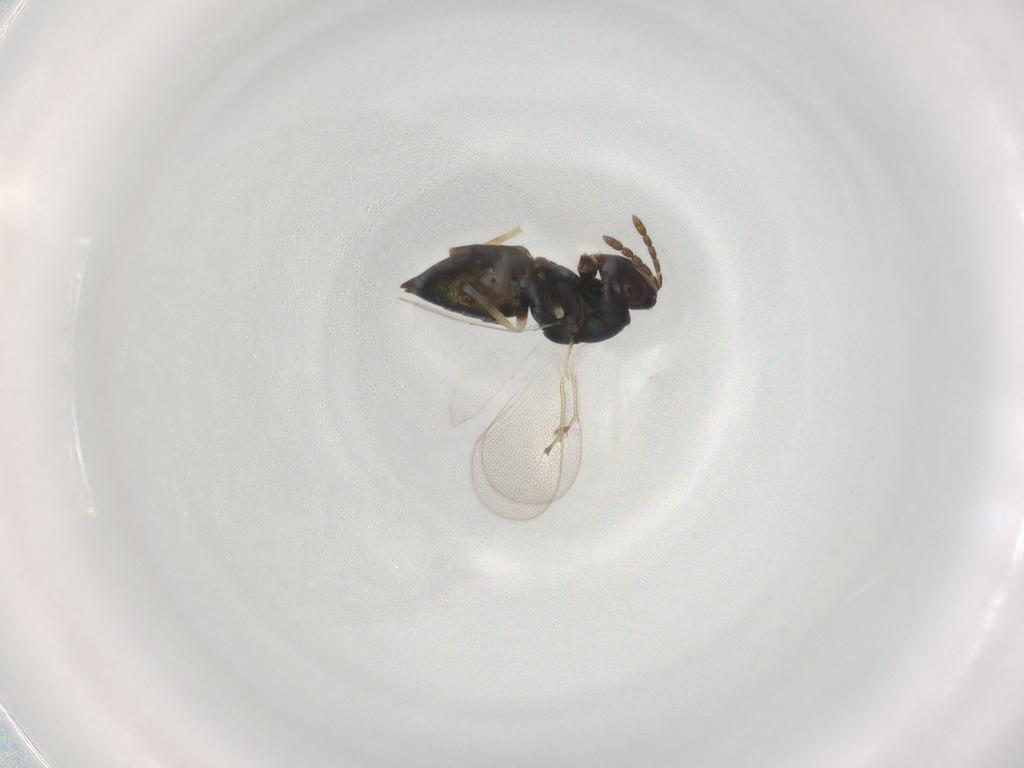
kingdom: Animalia
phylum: Arthropoda
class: Insecta
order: Hymenoptera
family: Eulophidae
